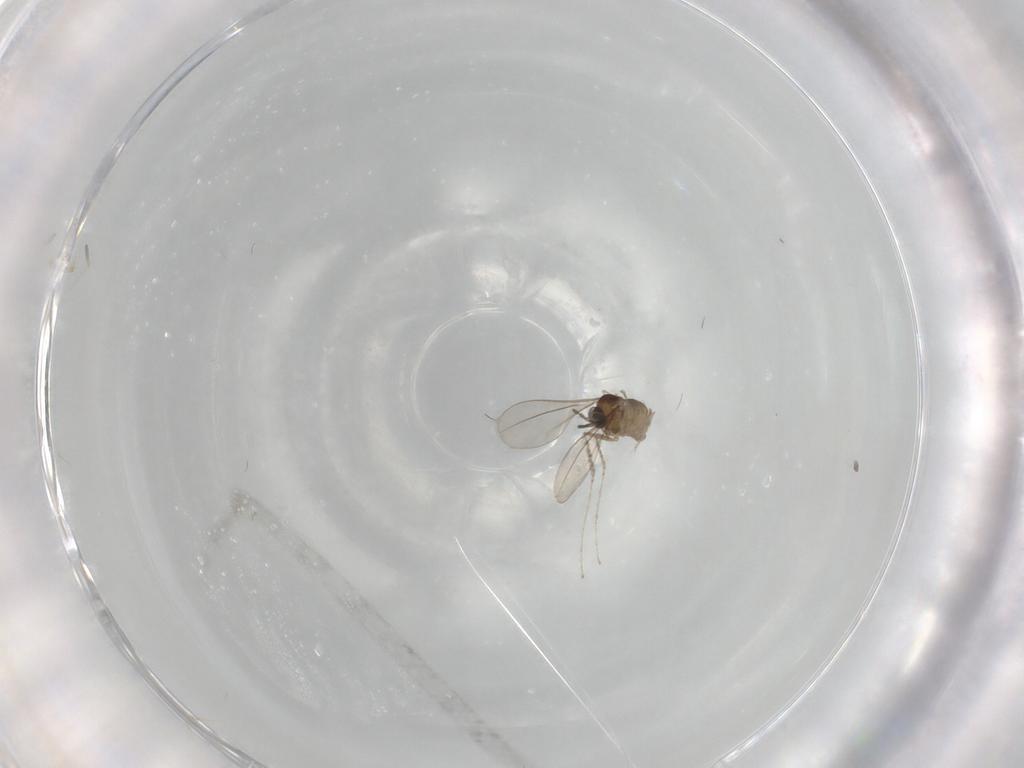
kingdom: Animalia
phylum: Arthropoda
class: Insecta
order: Diptera
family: Cecidomyiidae
